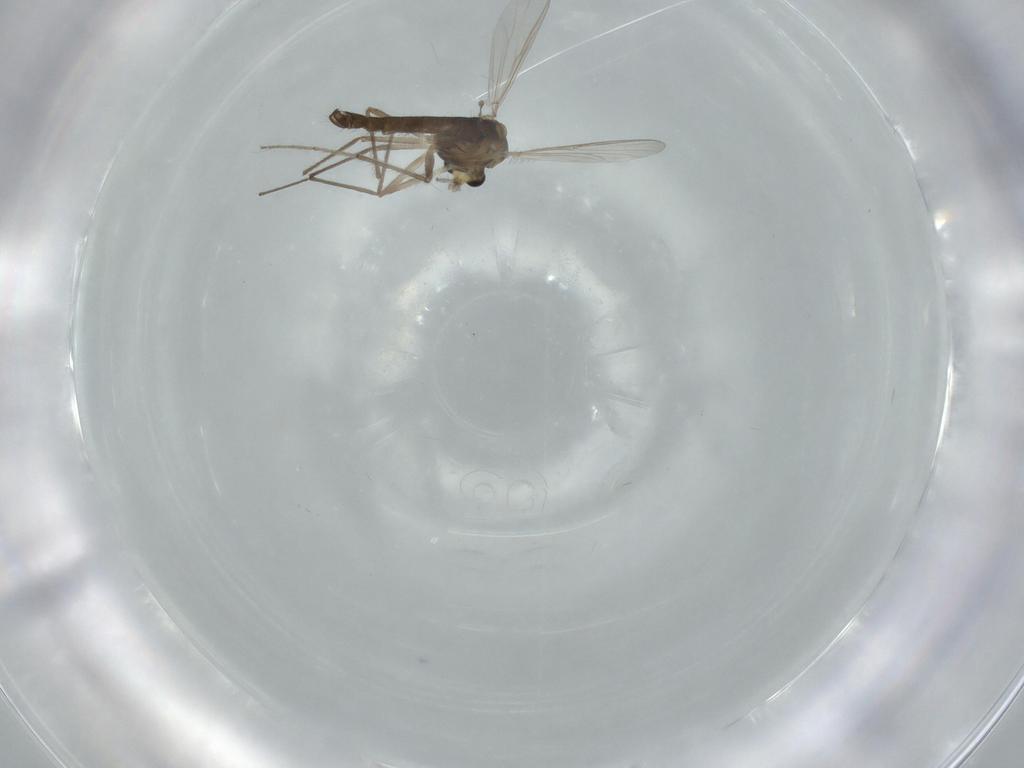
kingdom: Animalia
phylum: Arthropoda
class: Insecta
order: Diptera
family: Chironomidae
